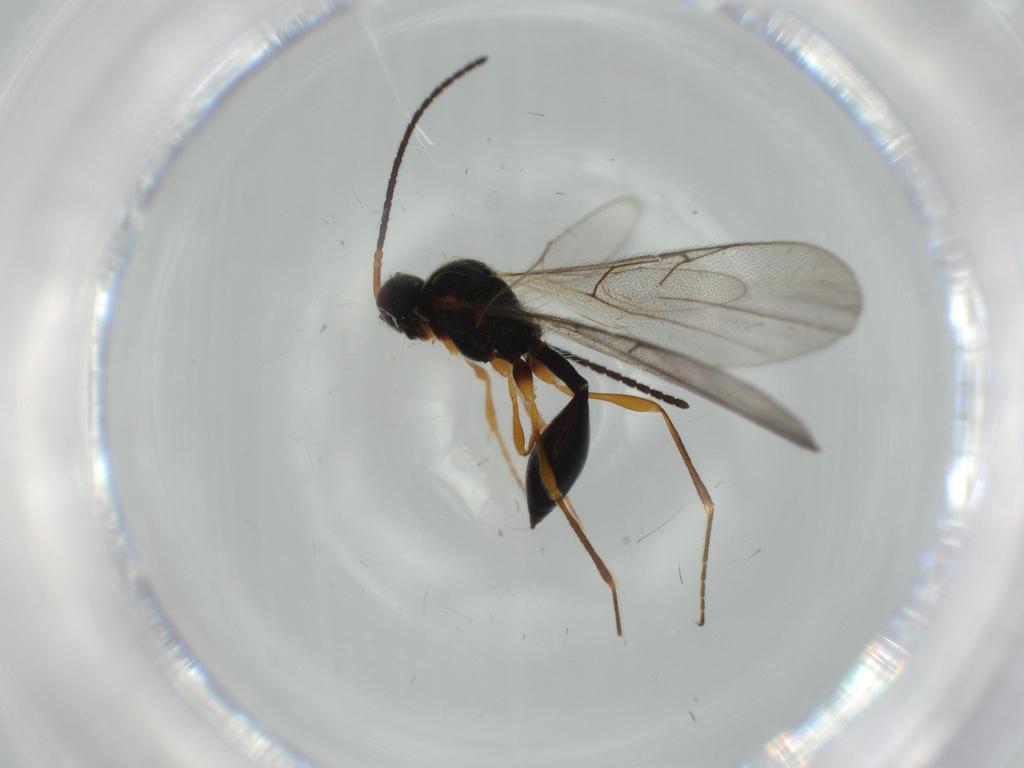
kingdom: Animalia
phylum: Arthropoda
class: Insecta
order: Hymenoptera
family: Diapriidae
